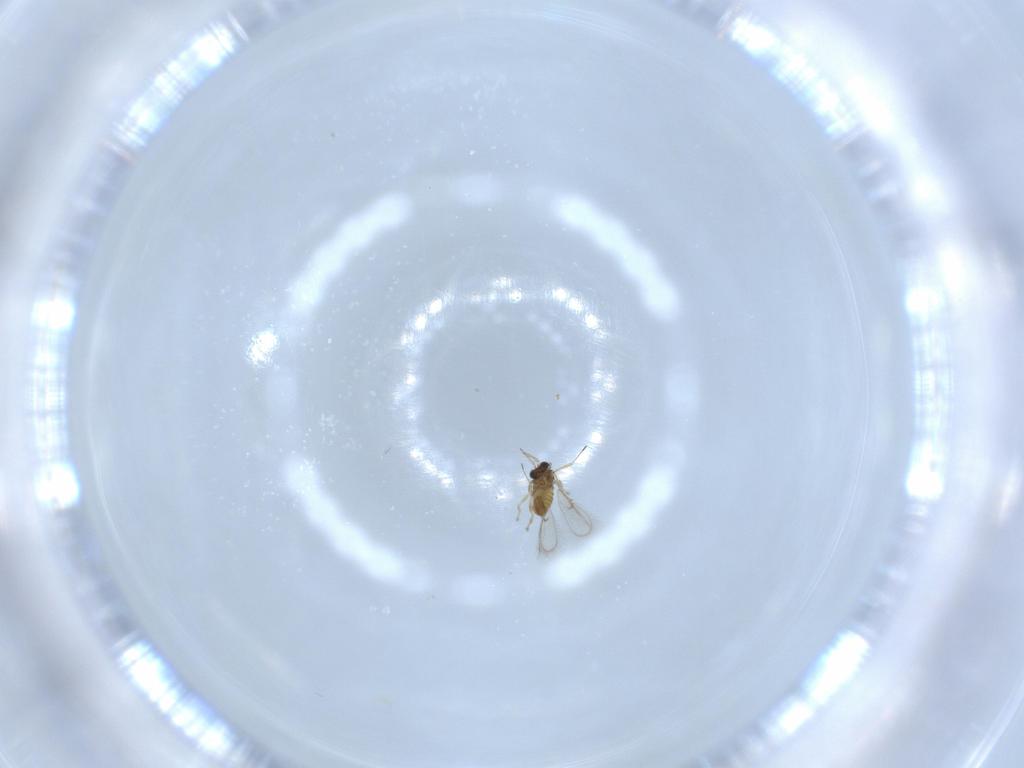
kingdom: Animalia
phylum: Arthropoda
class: Insecta
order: Hymenoptera
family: Trichogrammatidae
